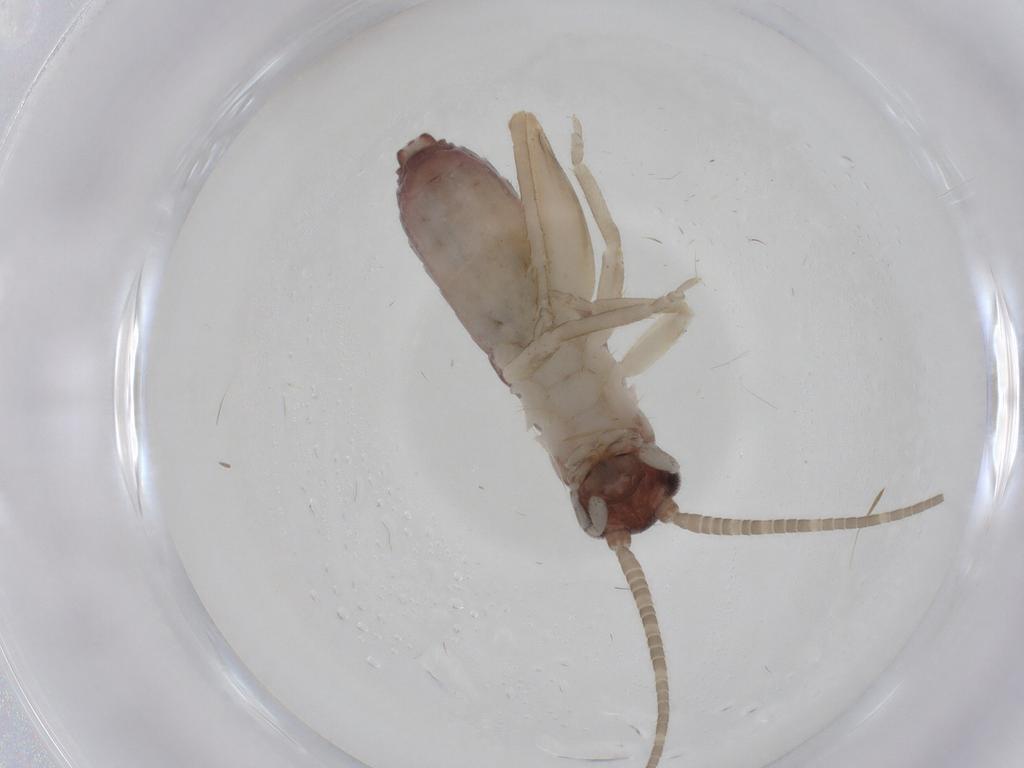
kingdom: Animalia
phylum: Arthropoda
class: Insecta
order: Orthoptera
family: Gryllidae
